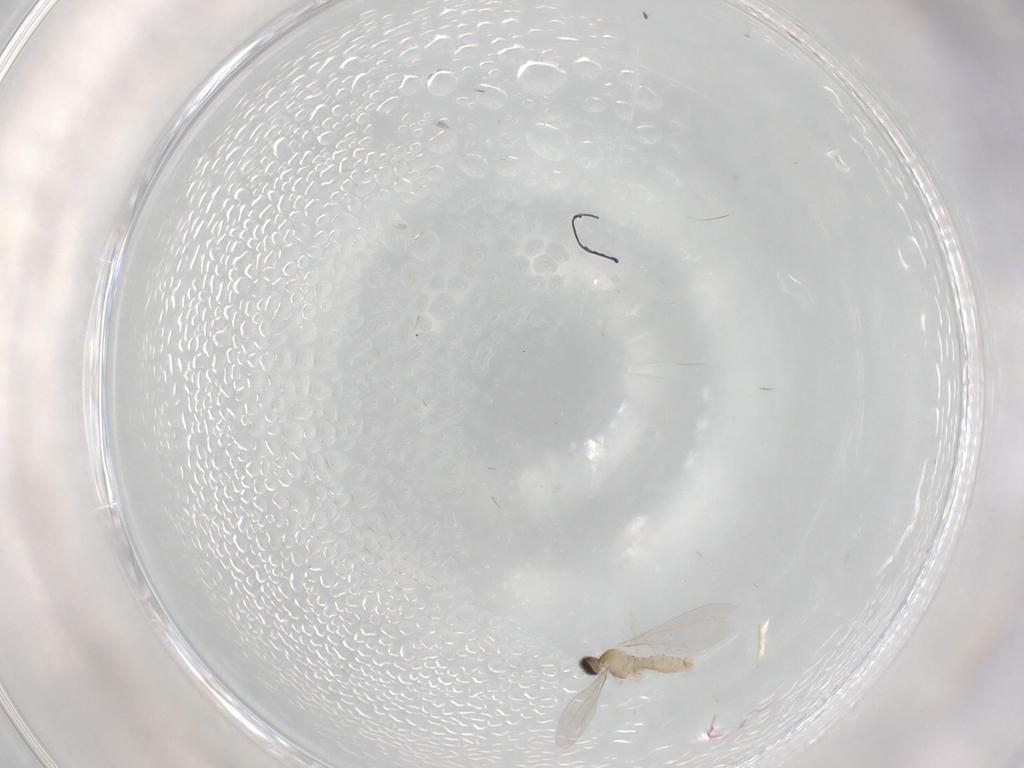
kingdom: Animalia
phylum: Arthropoda
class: Insecta
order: Diptera
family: Cecidomyiidae
